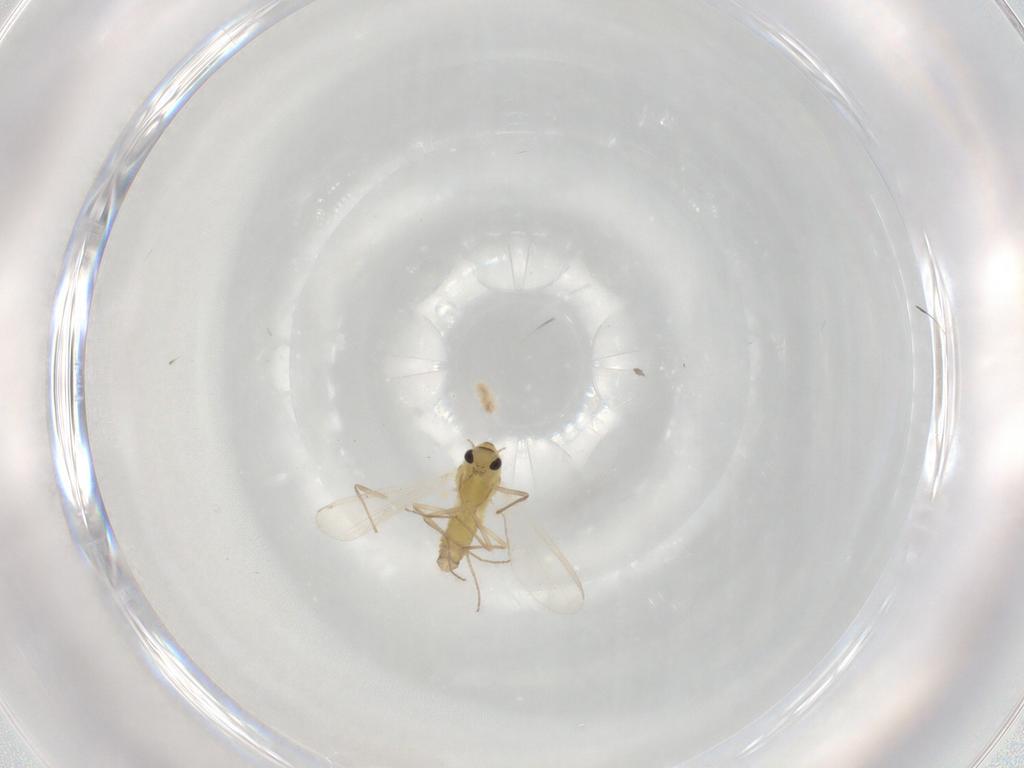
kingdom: Animalia
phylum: Arthropoda
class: Insecta
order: Diptera
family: Chironomidae
